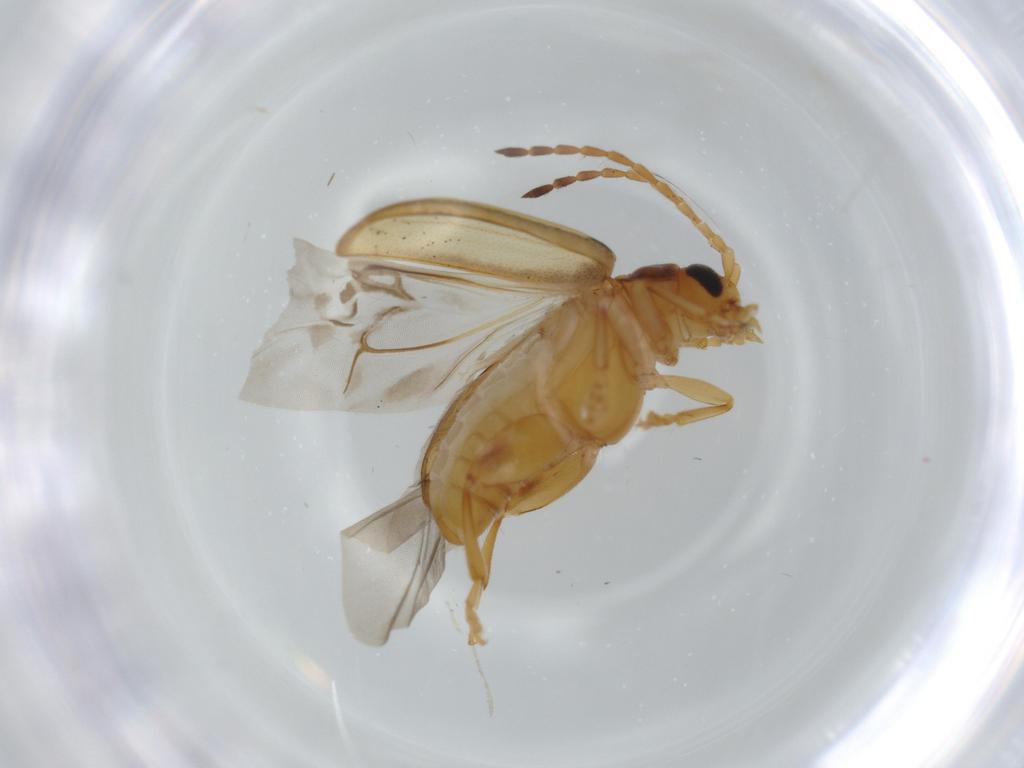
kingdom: Animalia
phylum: Arthropoda
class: Insecta
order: Coleoptera
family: Chrysomelidae
